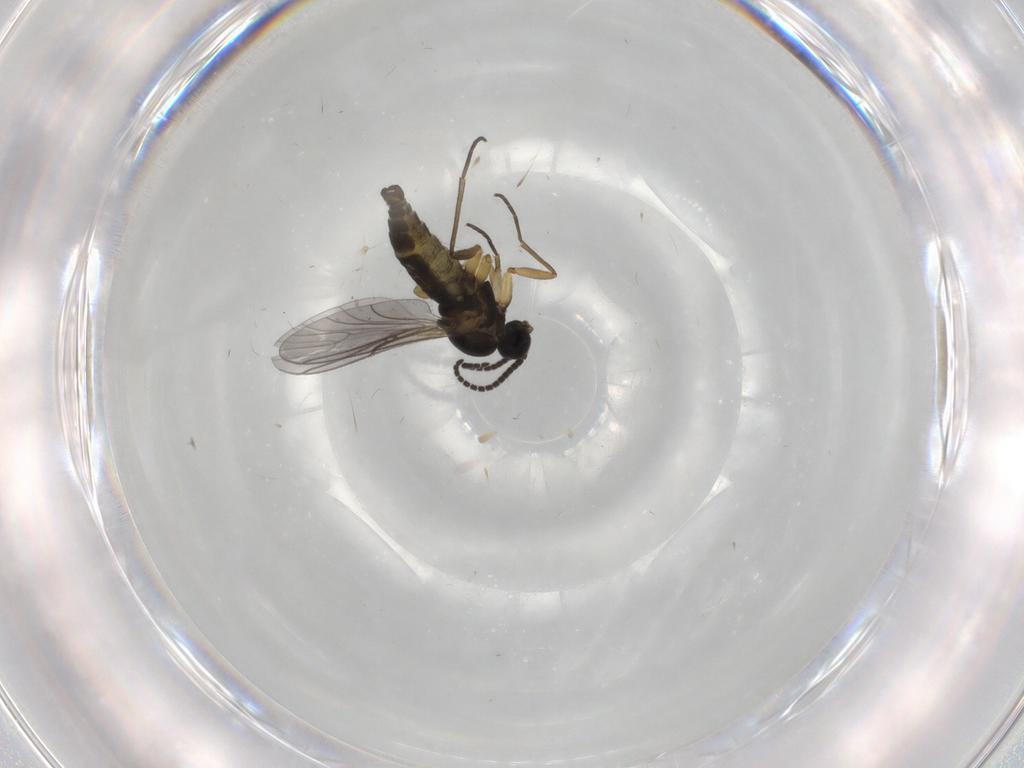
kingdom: Animalia
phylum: Arthropoda
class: Insecta
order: Diptera
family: Sciaridae
